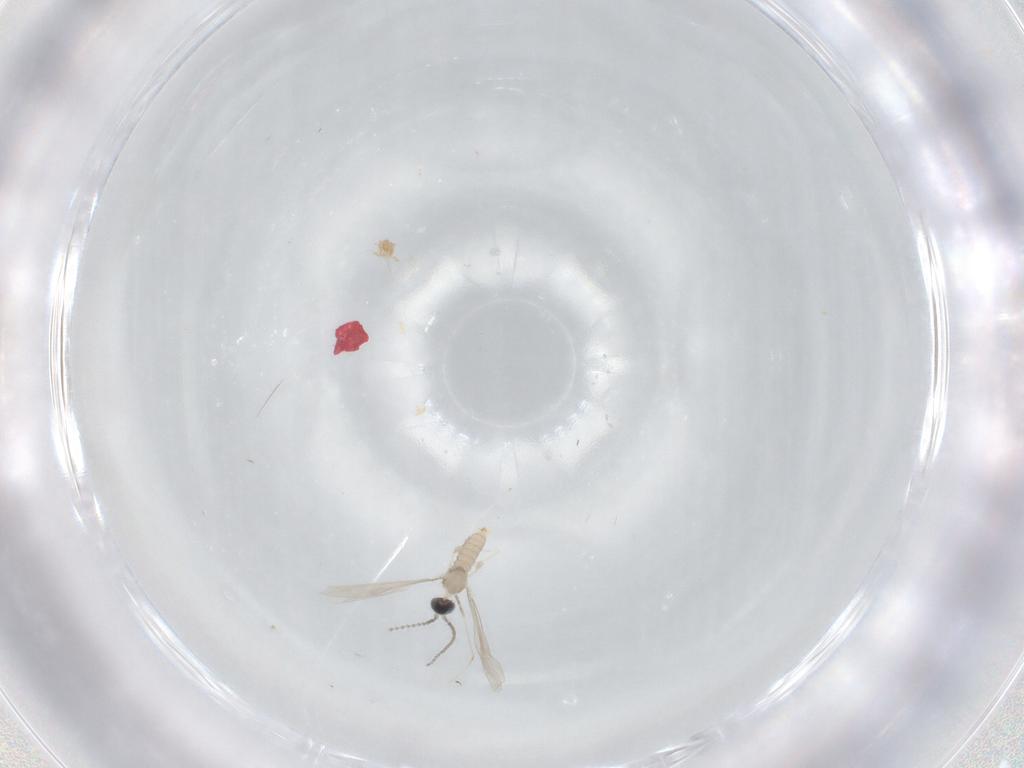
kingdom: Animalia
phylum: Arthropoda
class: Insecta
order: Diptera
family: Cecidomyiidae
